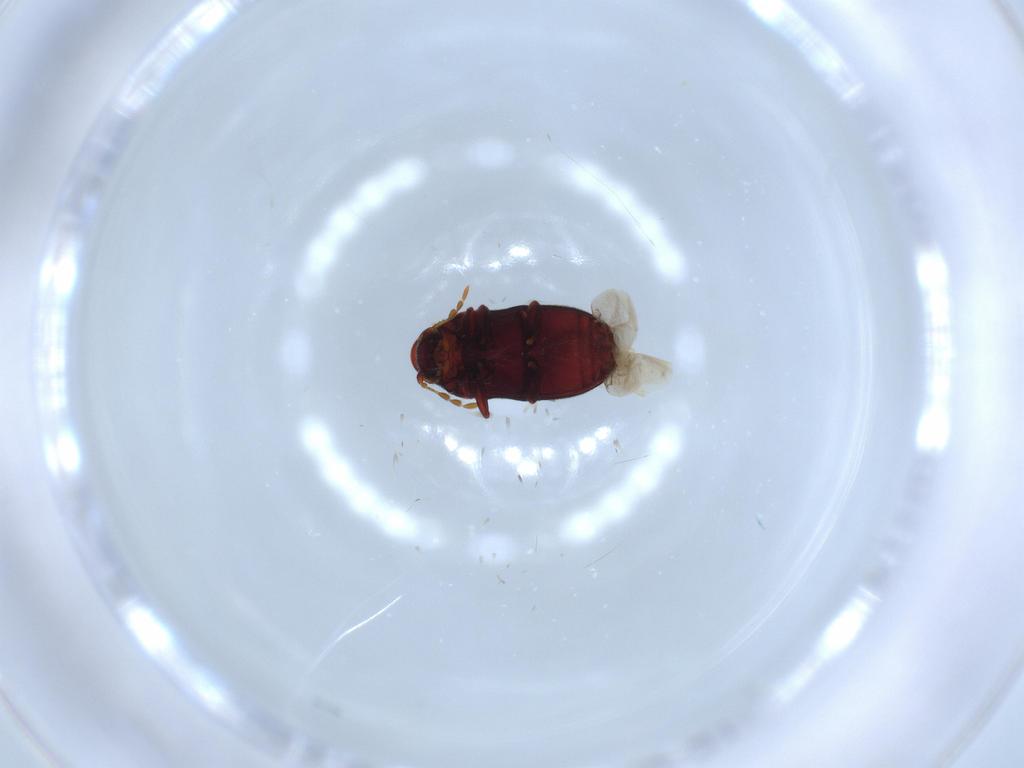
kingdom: Animalia
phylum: Arthropoda
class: Insecta
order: Coleoptera
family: Ptinidae
